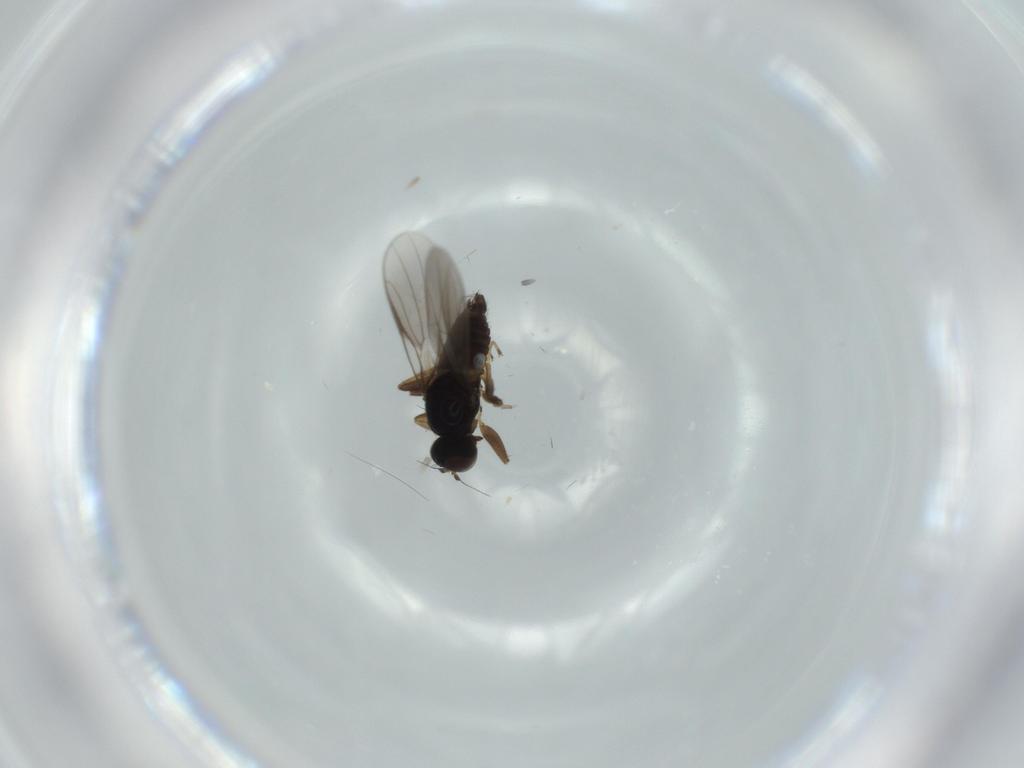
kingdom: Animalia
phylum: Arthropoda
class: Insecta
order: Diptera
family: Hybotidae
